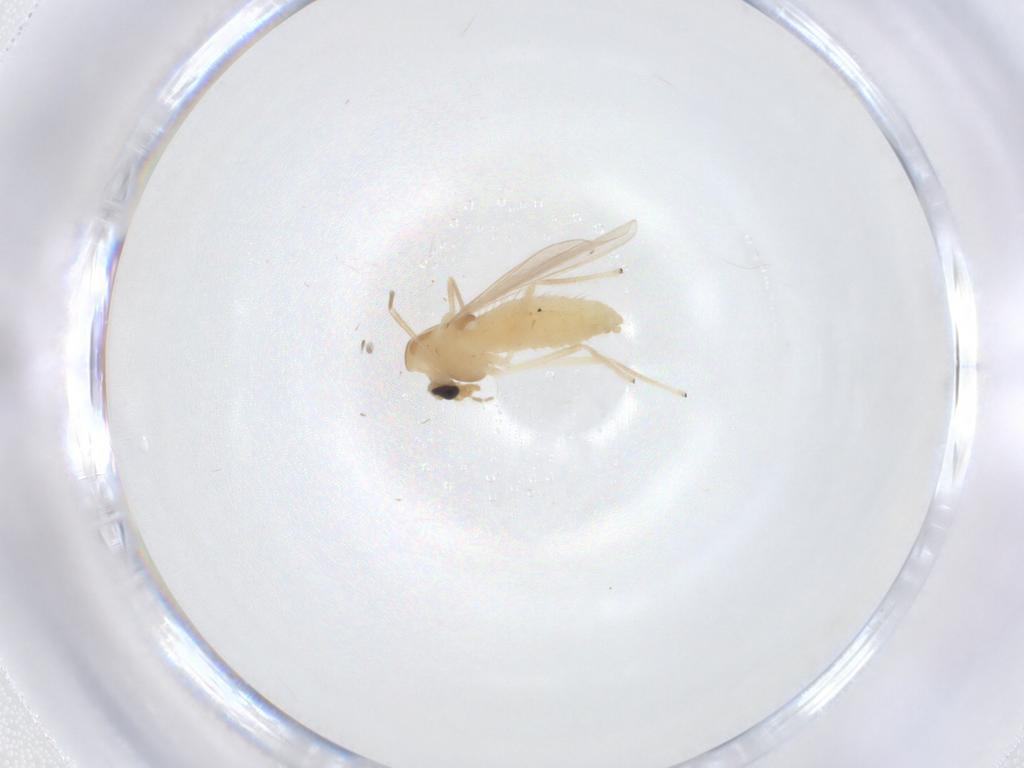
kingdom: Animalia
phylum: Arthropoda
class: Insecta
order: Diptera
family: Chironomidae
